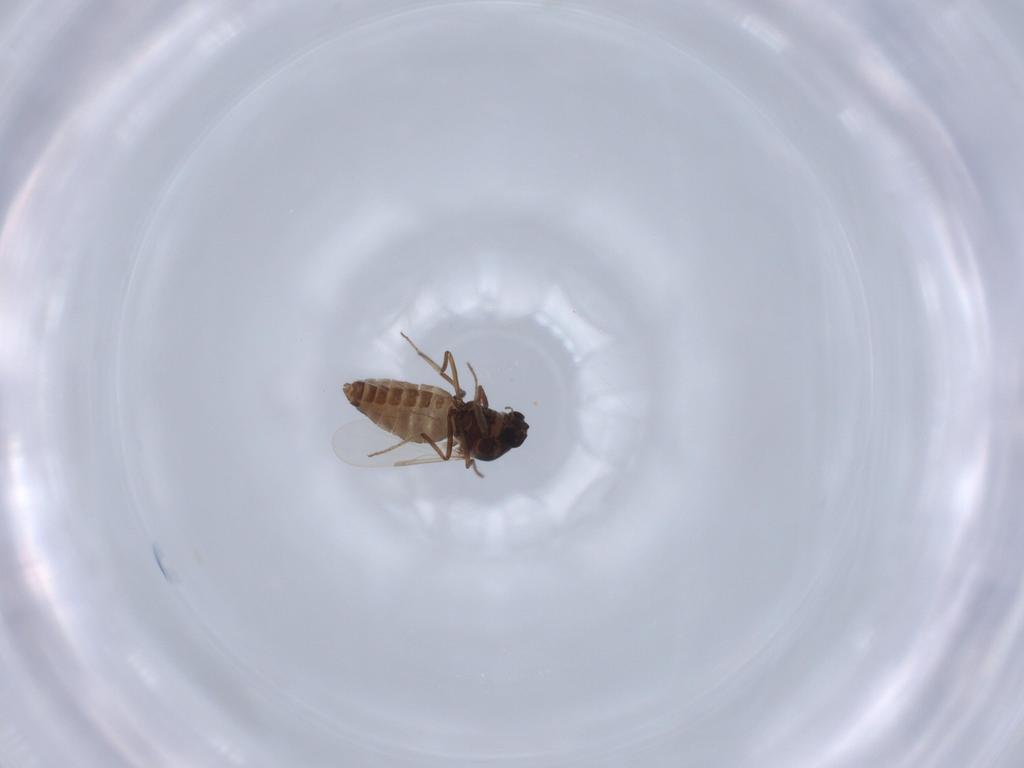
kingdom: Animalia
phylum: Arthropoda
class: Insecta
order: Diptera
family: Ceratopogonidae
